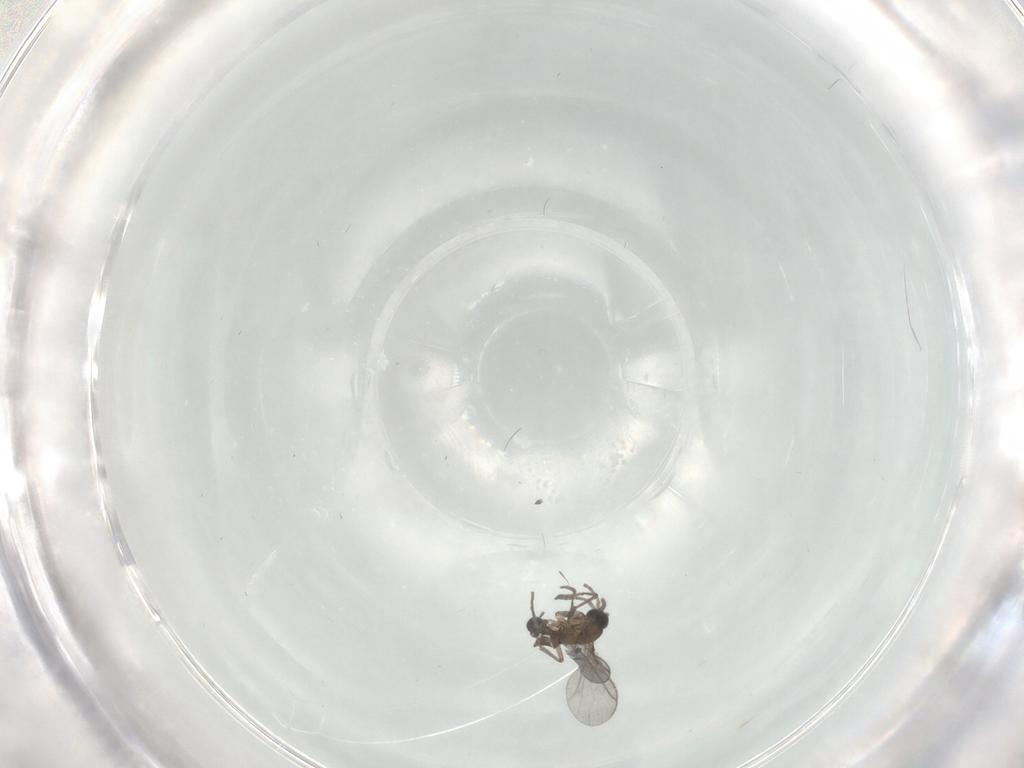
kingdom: Animalia
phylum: Arthropoda
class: Insecta
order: Diptera
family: Sciaridae
